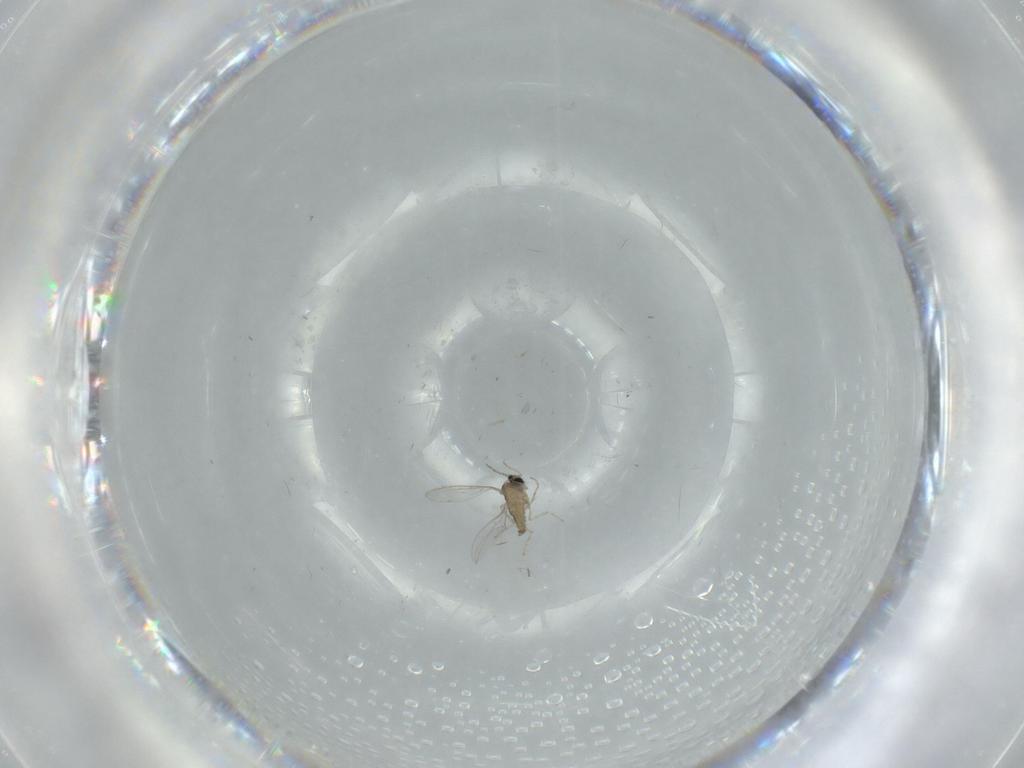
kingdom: Animalia
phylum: Arthropoda
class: Insecta
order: Diptera
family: Cecidomyiidae
